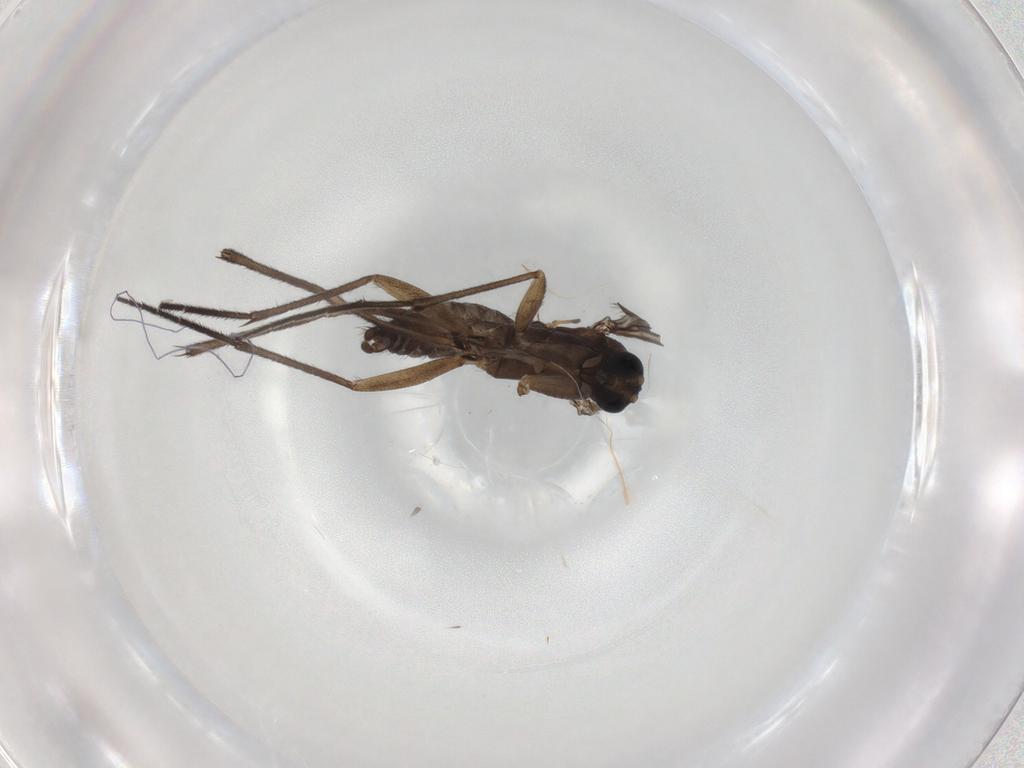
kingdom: Animalia
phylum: Arthropoda
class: Insecta
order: Diptera
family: Sciaridae
